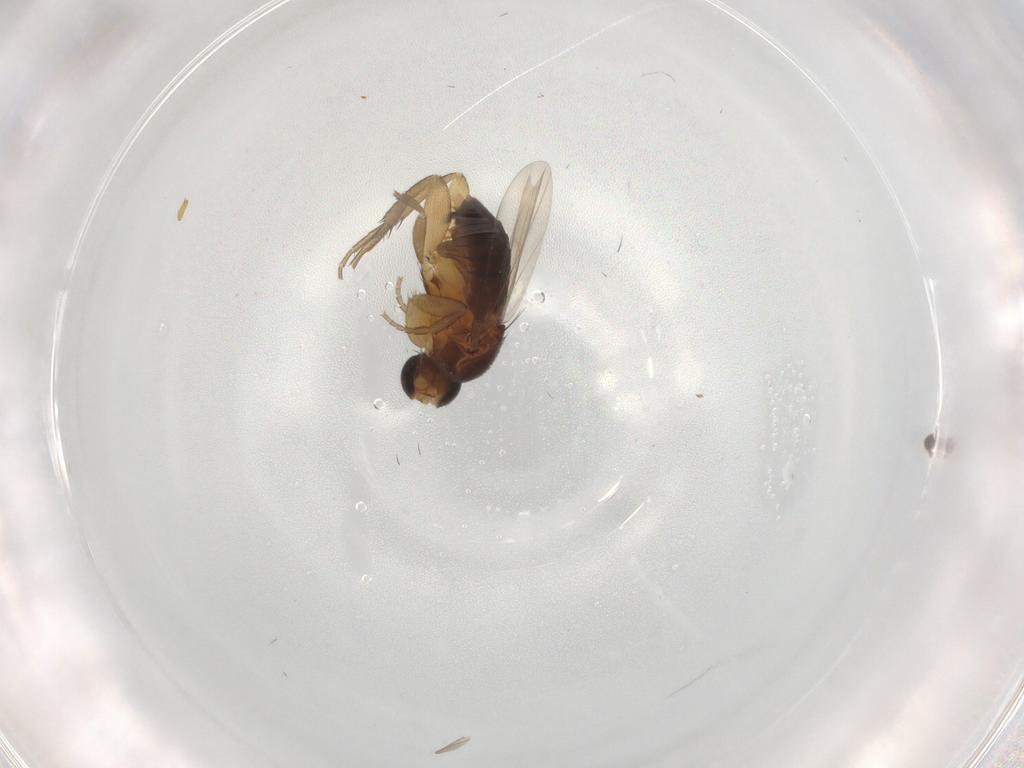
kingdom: Animalia
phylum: Arthropoda
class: Insecta
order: Diptera
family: Phoridae
